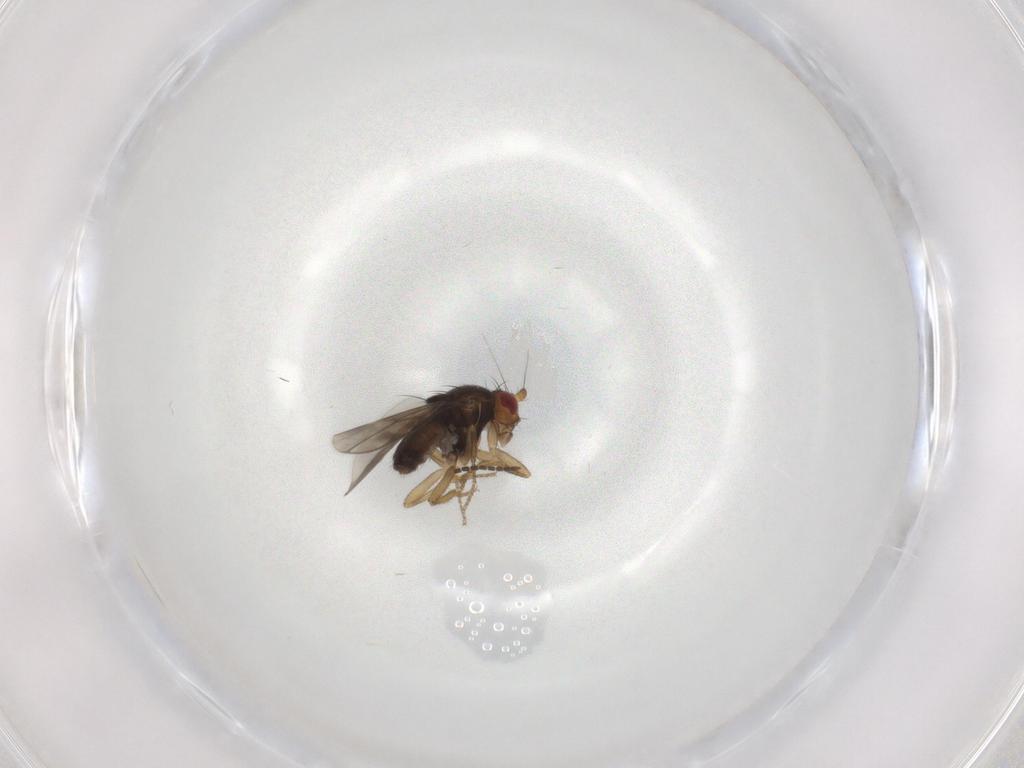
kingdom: Animalia
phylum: Arthropoda
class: Insecta
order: Diptera
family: Sphaeroceridae
